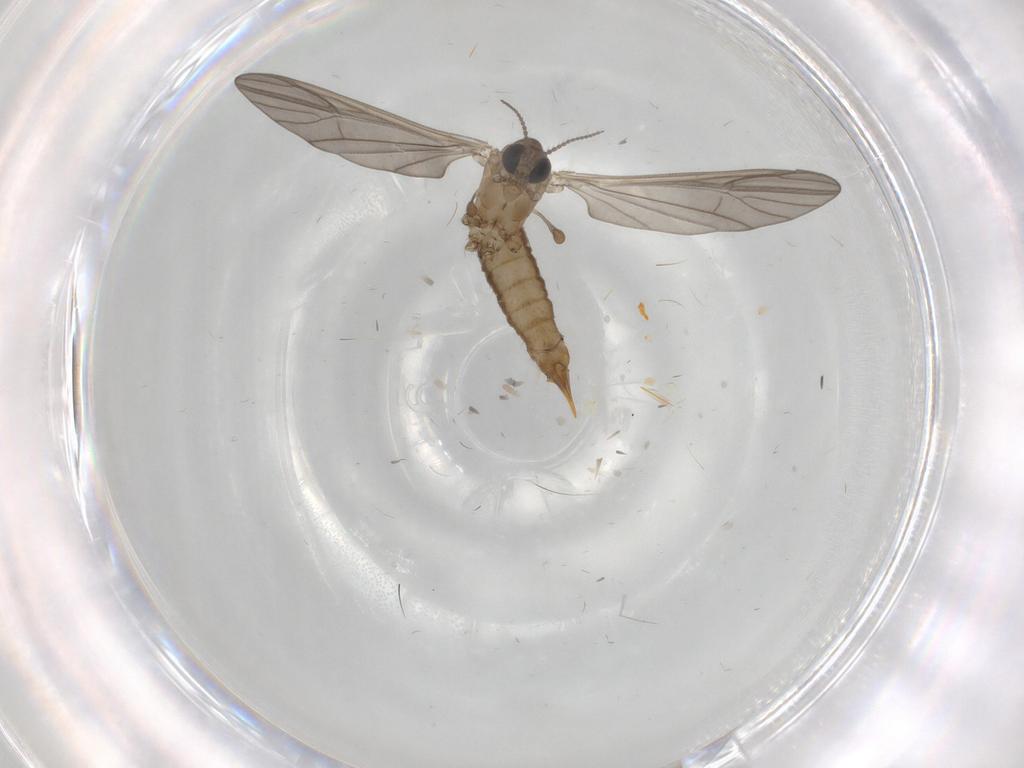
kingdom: Animalia
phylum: Arthropoda
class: Insecta
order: Diptera
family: Limoniidae
